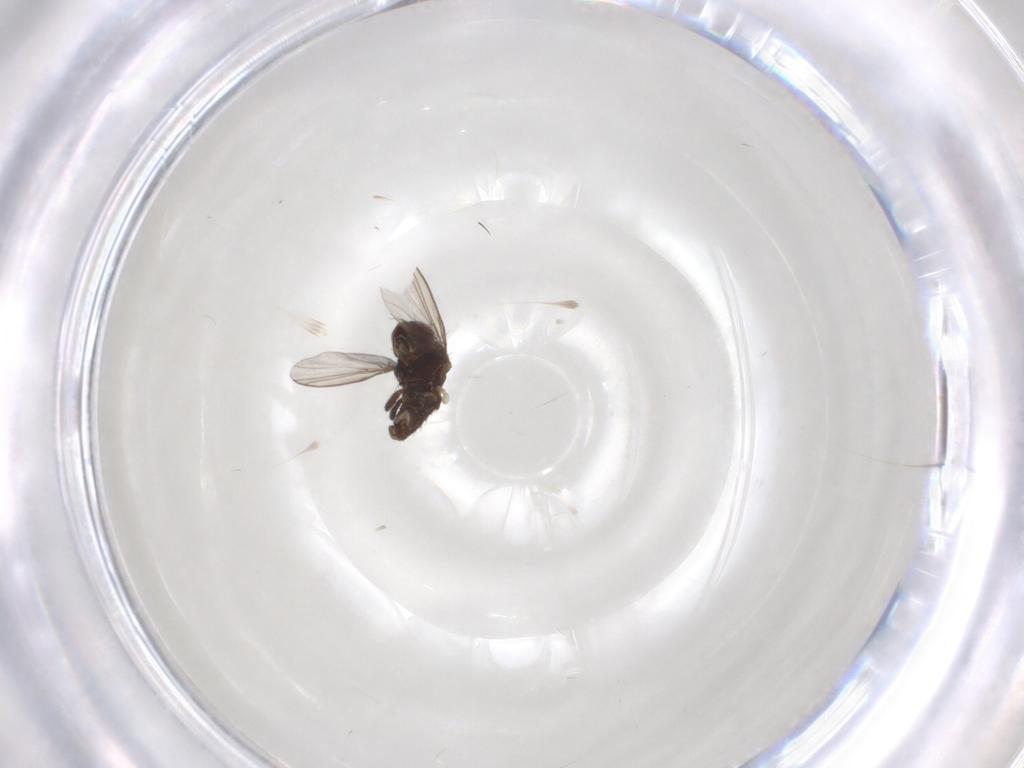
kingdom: Animalia
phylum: Arthropoda
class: Insecta
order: Diptera
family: Agromyzidae
